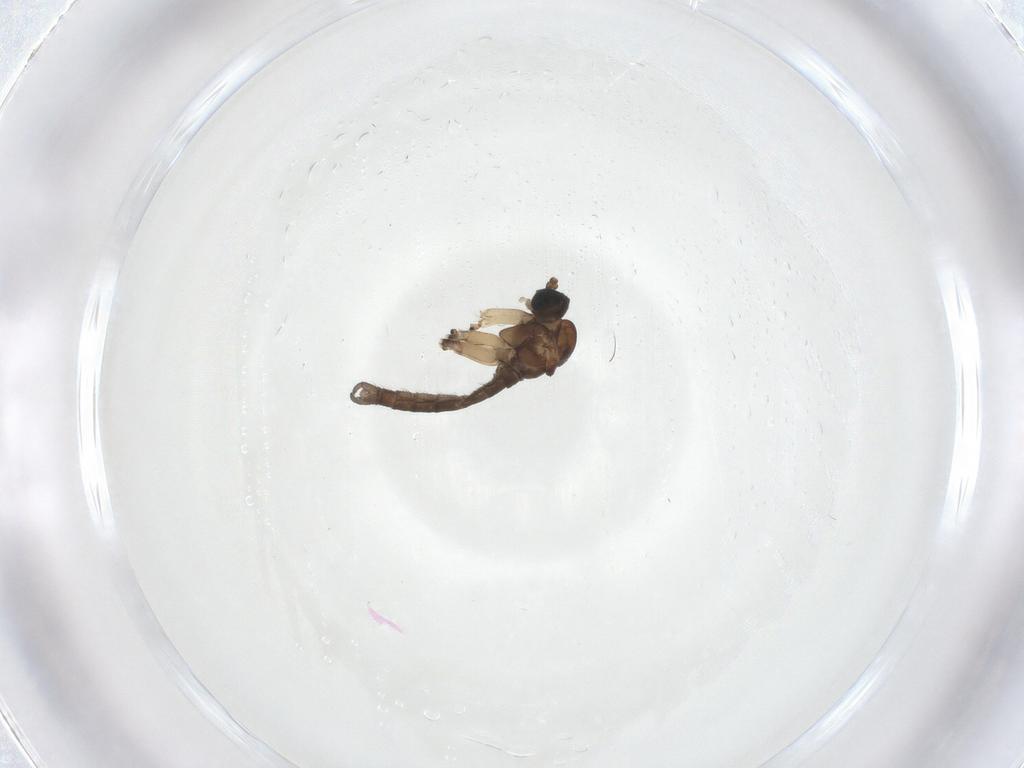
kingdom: Animalia
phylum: Arthropoda
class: Insecta
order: Diptera
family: Sciaridae
